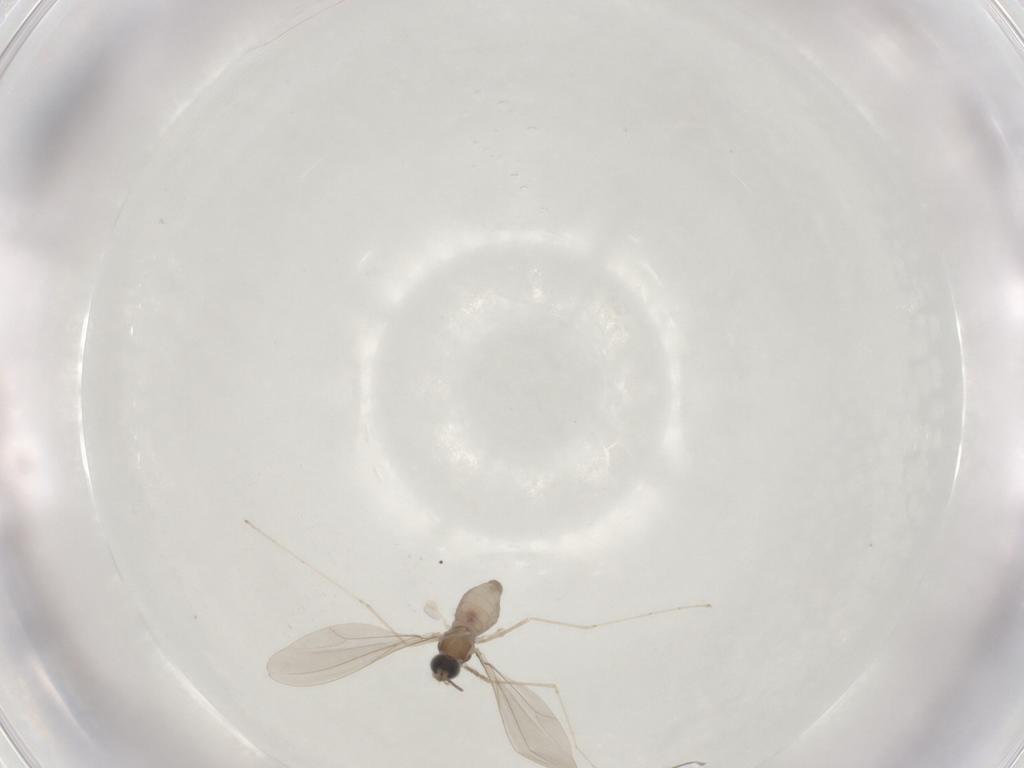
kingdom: Animalia
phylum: Arthropoda
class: Insecta
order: Diptera
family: Cecidomyiidae
